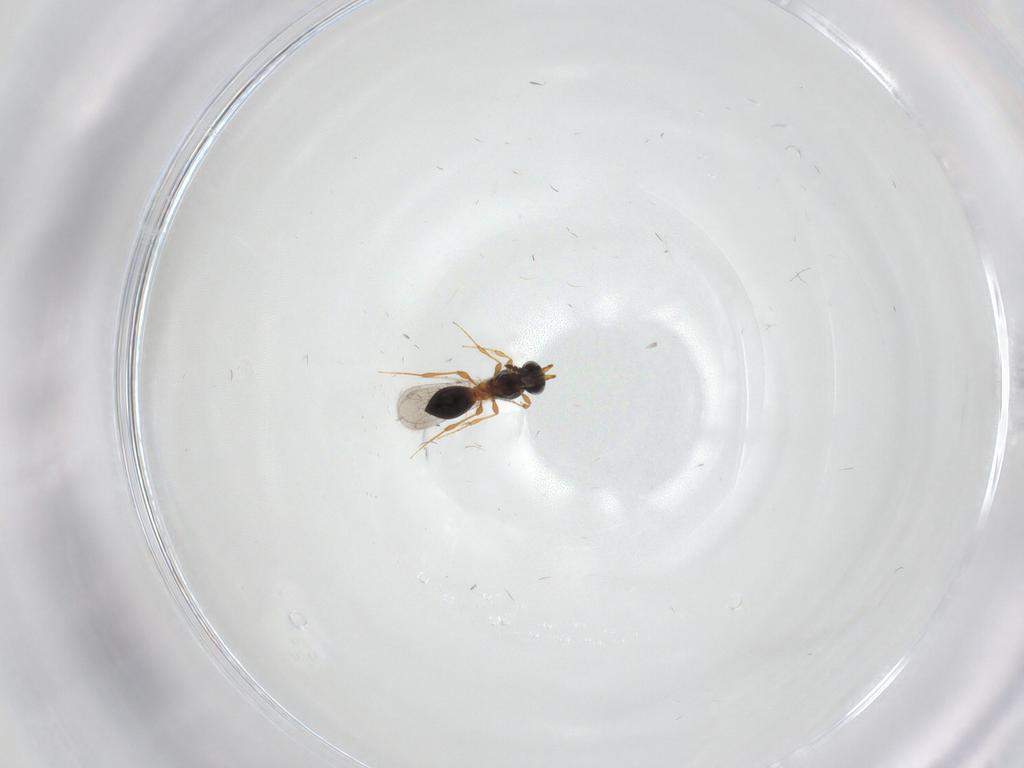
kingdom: Animalia
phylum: Arthropoda
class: Insecta
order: Hymenoptera
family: Platygastridae
